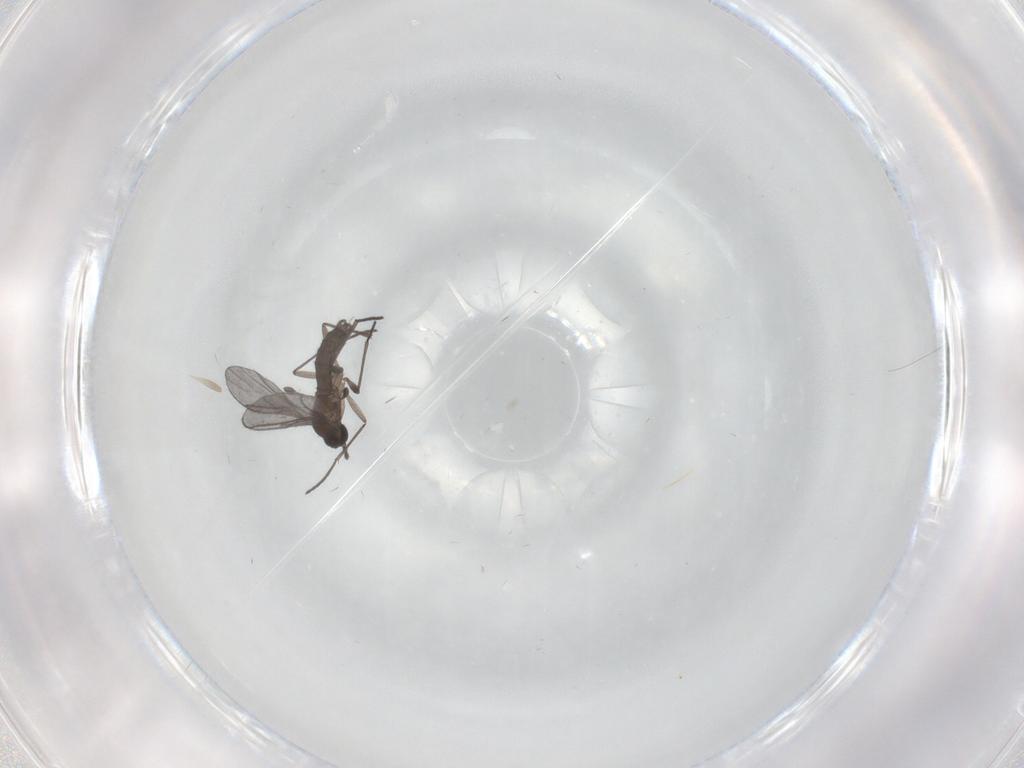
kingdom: Animalia
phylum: Arthropoda
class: Insecta
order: Diptera
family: Cecidomyiidae
